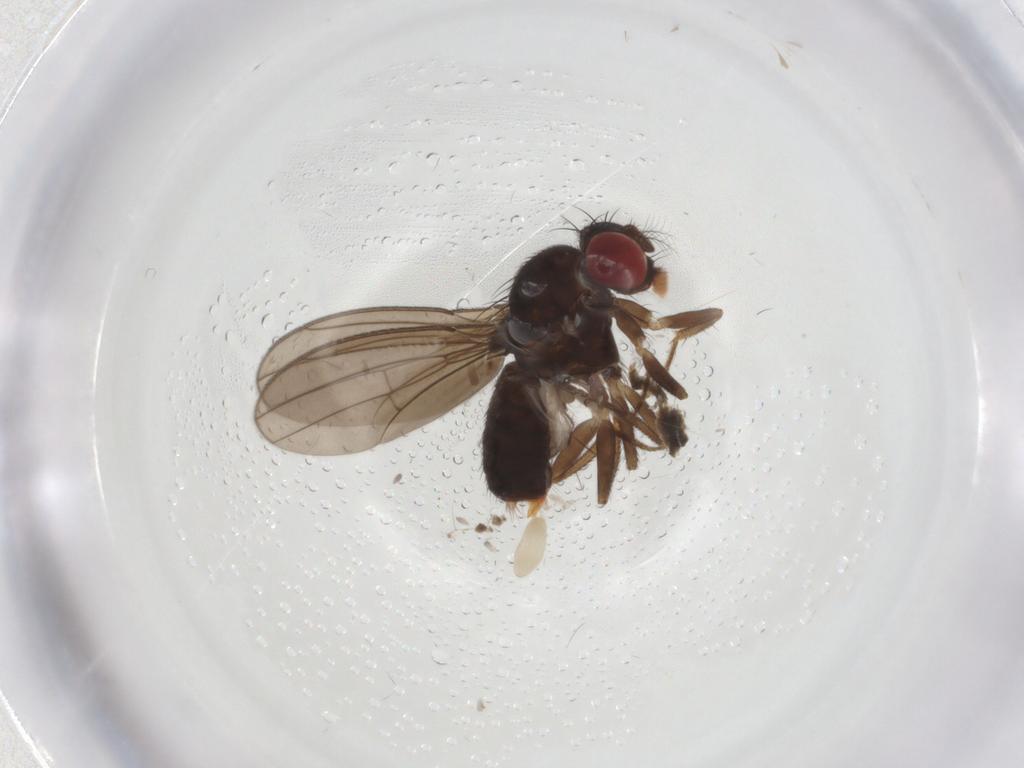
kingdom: Animalia
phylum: Arthropoda
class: Insecta
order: Diptera
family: Drosophilidae
